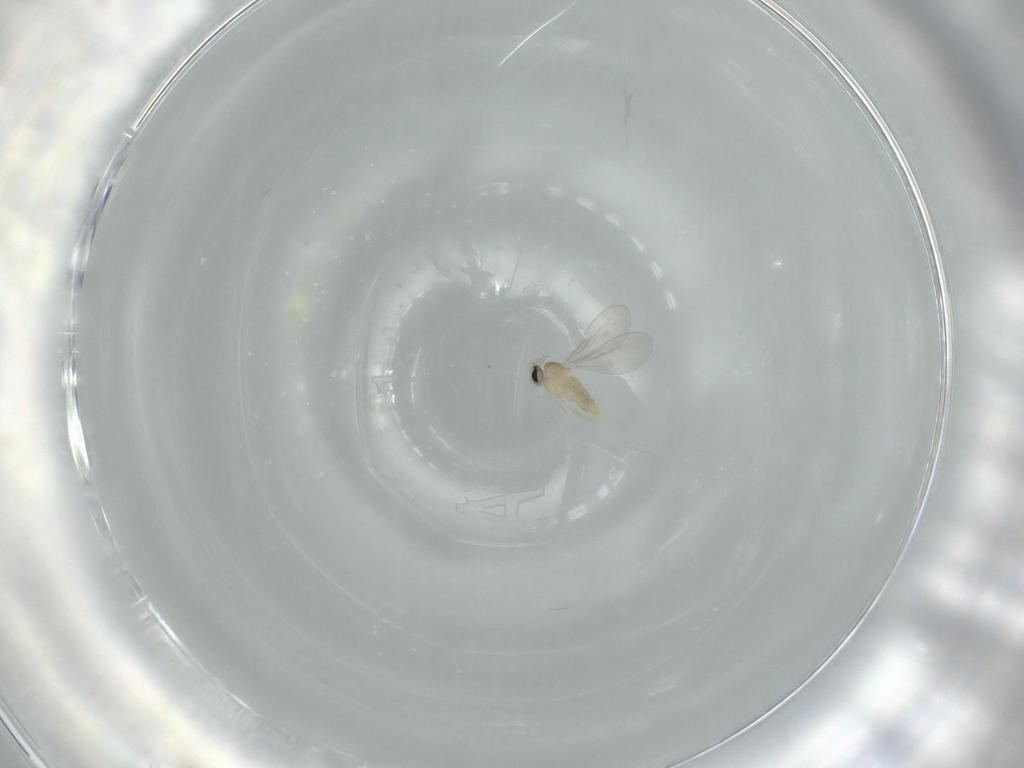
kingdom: Animalia
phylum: Arthropoda
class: Insecta
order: Diptera
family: Cecidomyiidae
